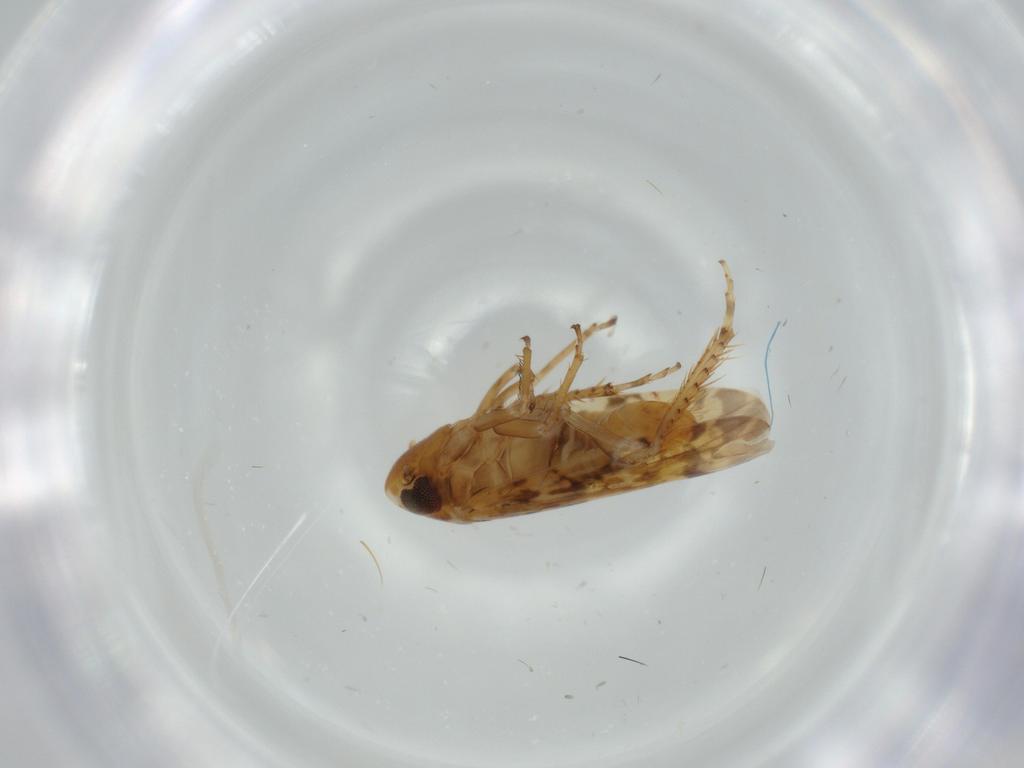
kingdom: Animalia
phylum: Arthropoda
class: Insecta
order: Hemiptera
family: Cicadellidae
